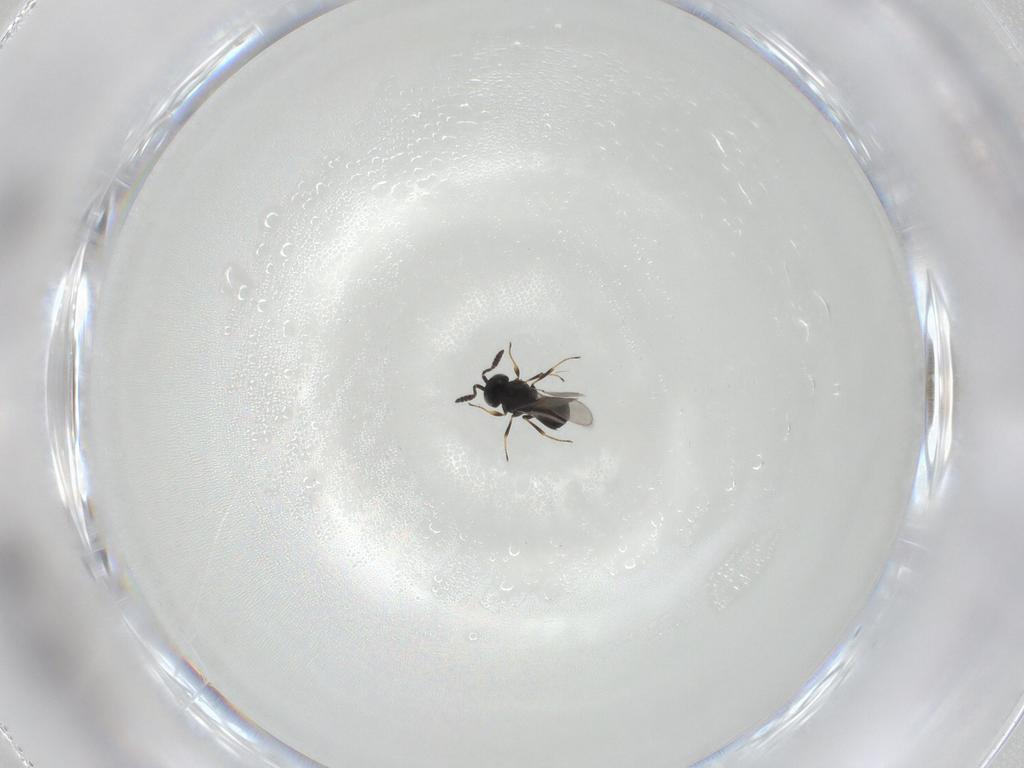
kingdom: Animalia
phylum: Arthropoda
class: Insecta
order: Hymenoptera
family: Scelionidae
